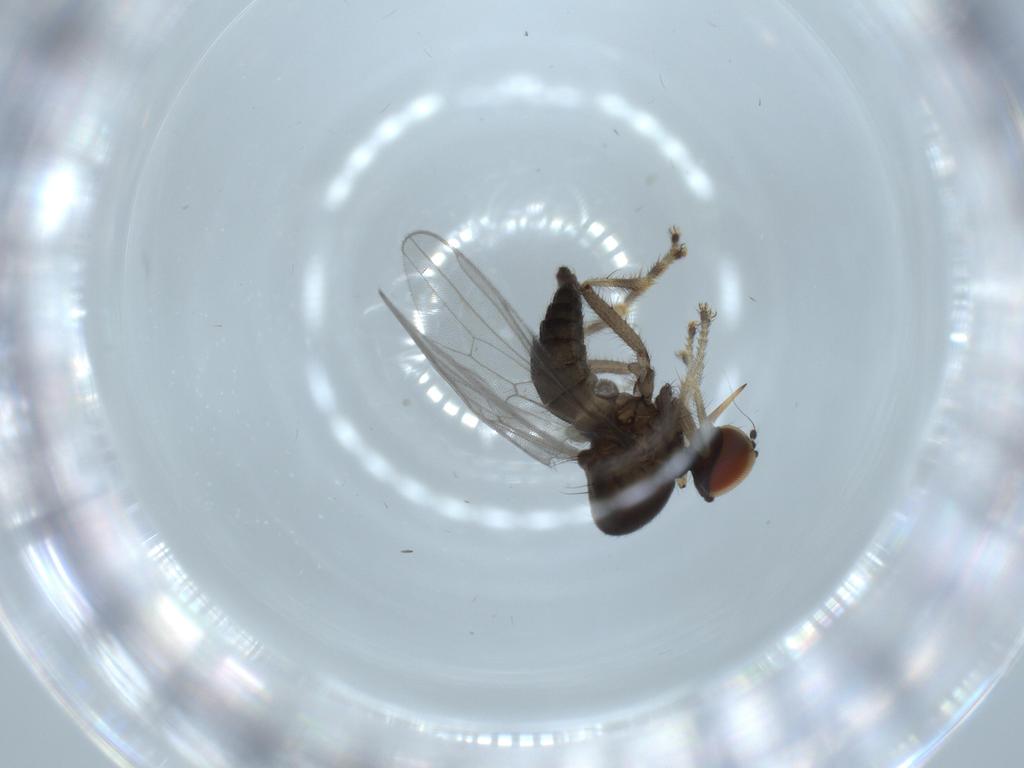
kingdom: Animalia
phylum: Arthropoda
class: Insecta
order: Diptera
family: Hybotidae
